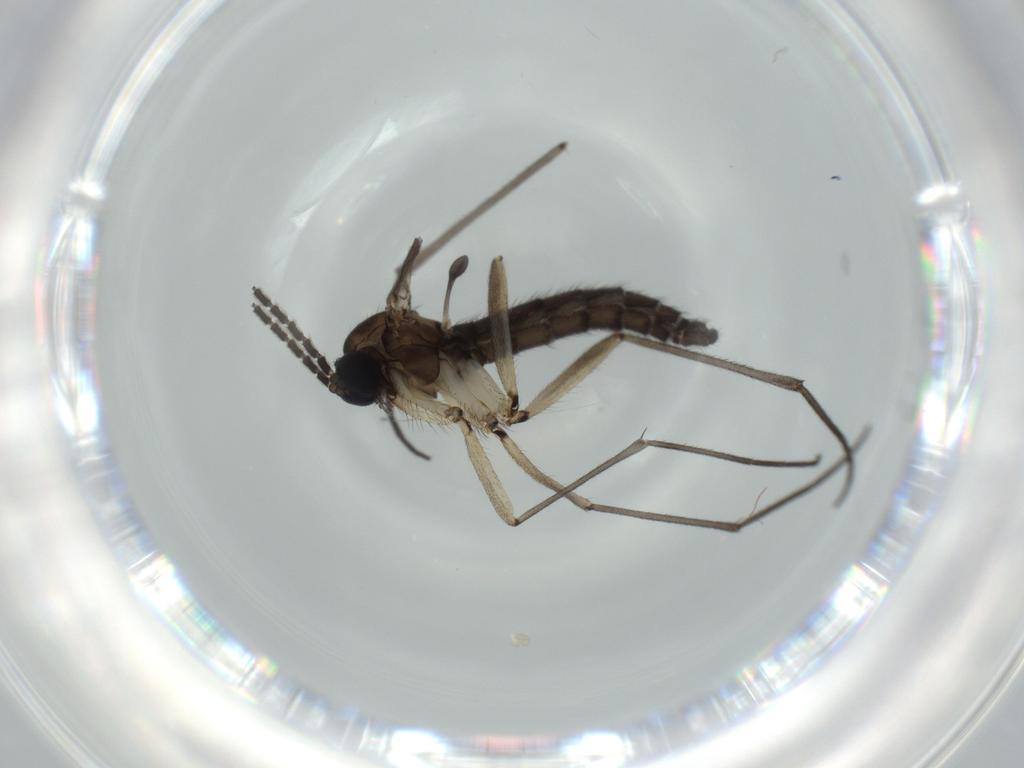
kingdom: Animalia
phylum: Arthropoda
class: Insecta
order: Diptera
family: Sciaridae
